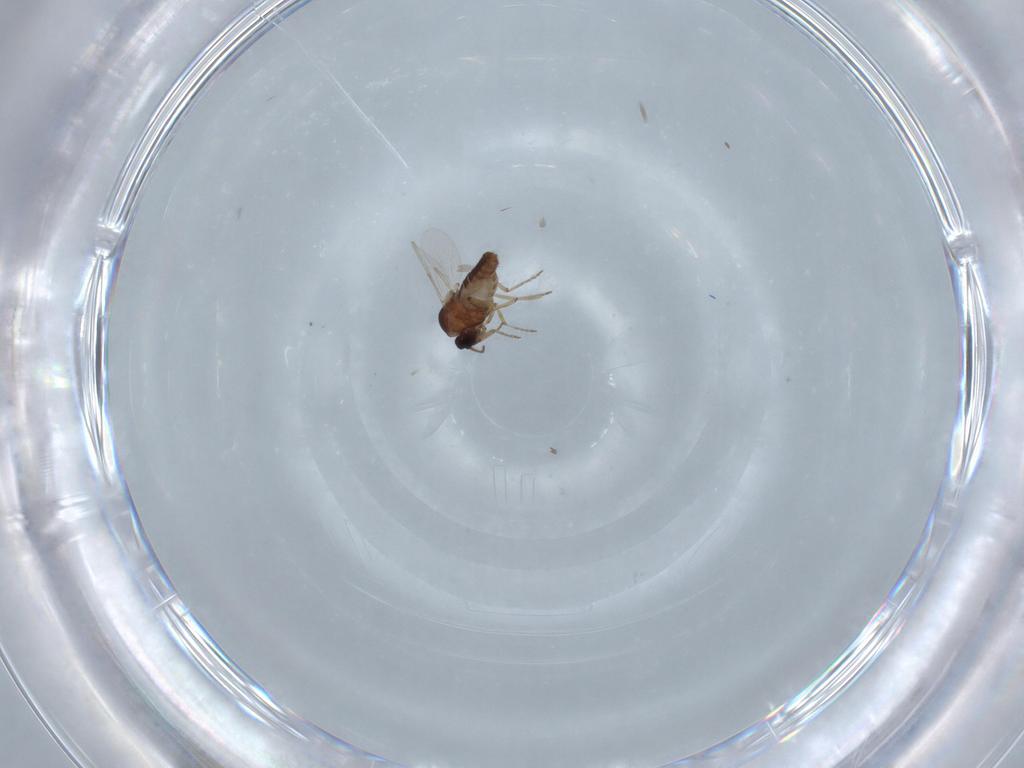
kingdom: Animalia
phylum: Arthropoda
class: Insecta
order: Diptera
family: Ceratopogonidae
